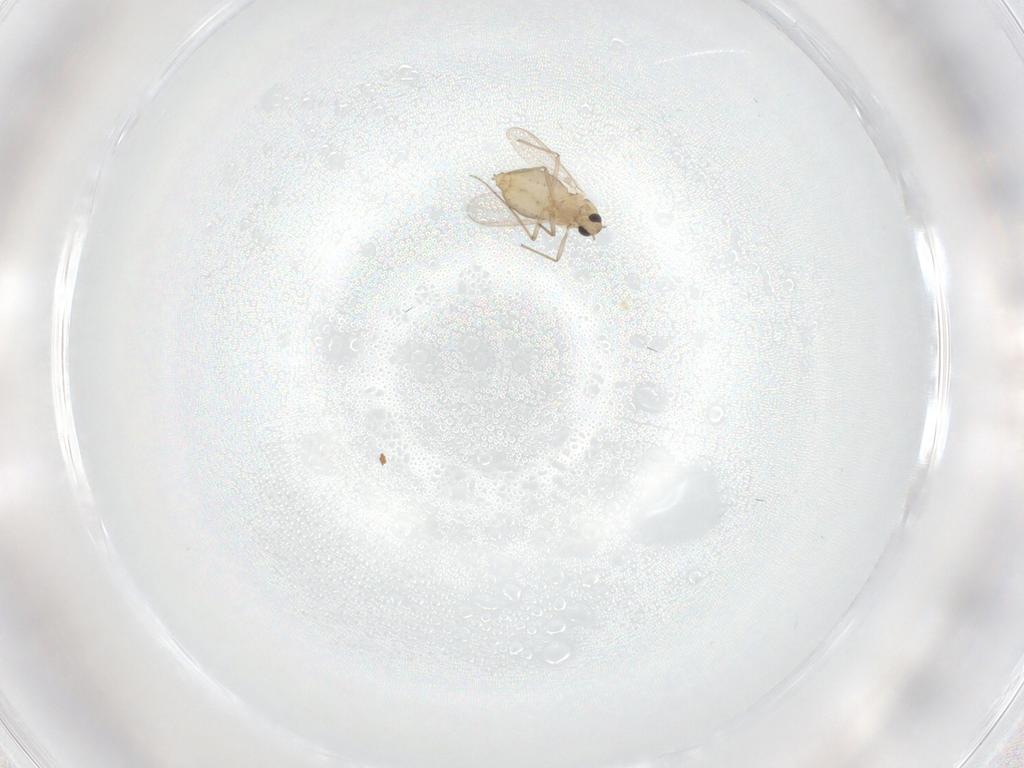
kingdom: Animalia
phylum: Arthropoda
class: Insecta
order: Diptera
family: Chironomidae
